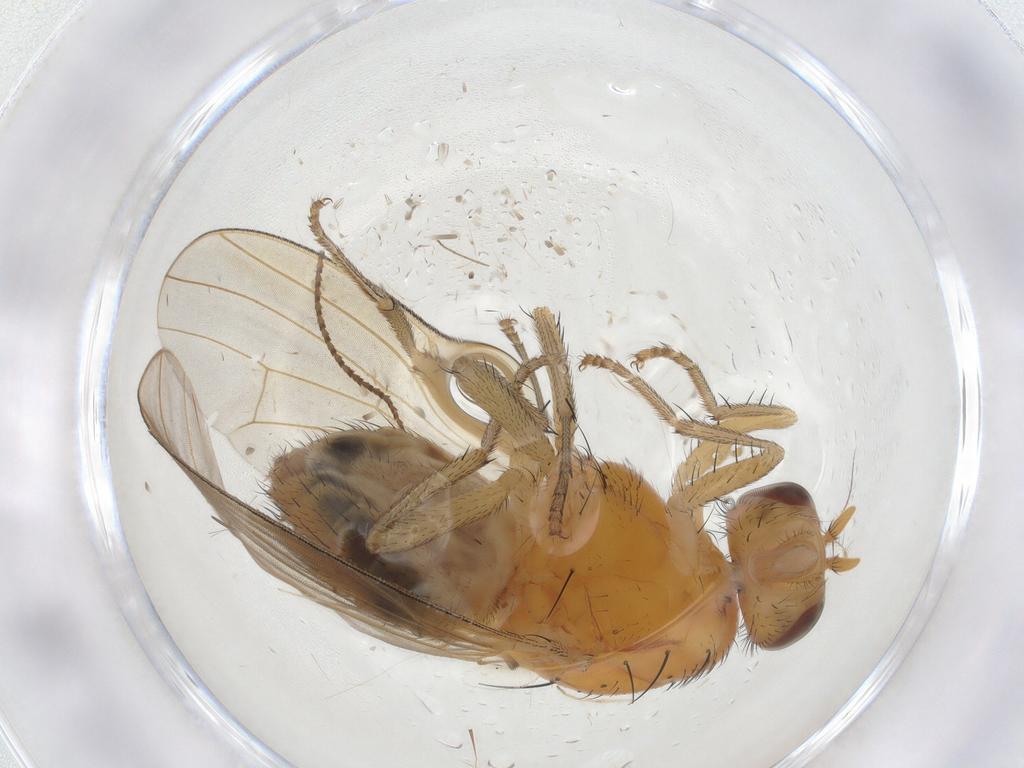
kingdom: Animalia
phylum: Arthropoda
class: Insecta
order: Diptera
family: Lauxaniidae
